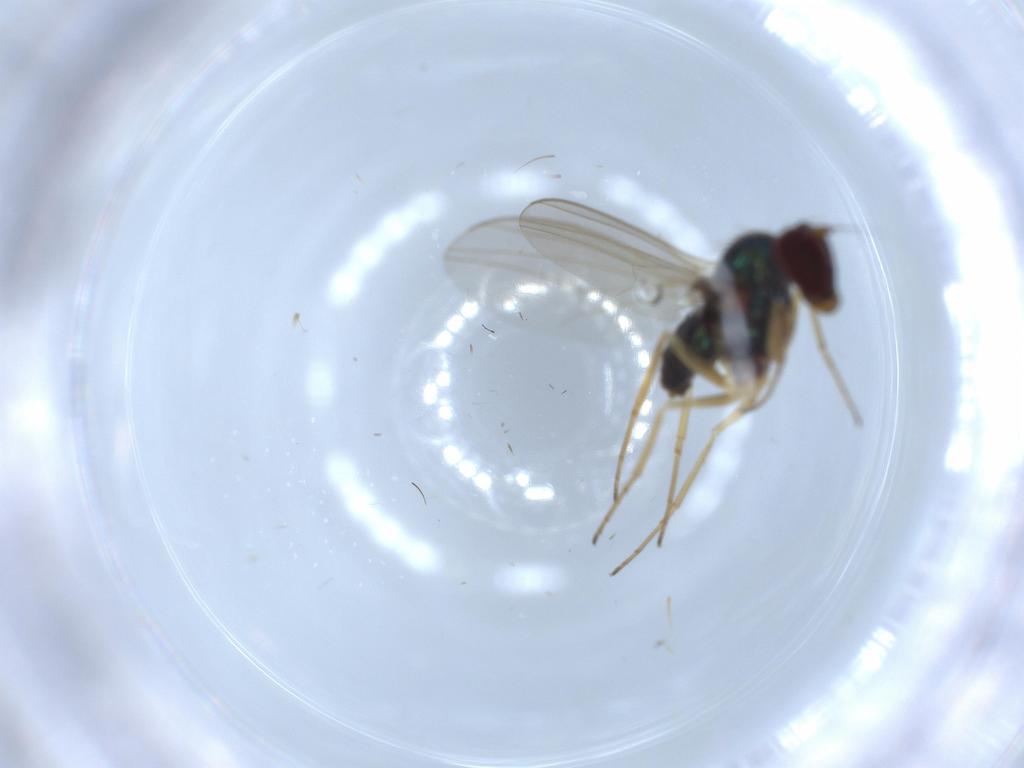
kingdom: Animalia
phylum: Arthropoda
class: Insecta
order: Diptera
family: Dolichopodidae
